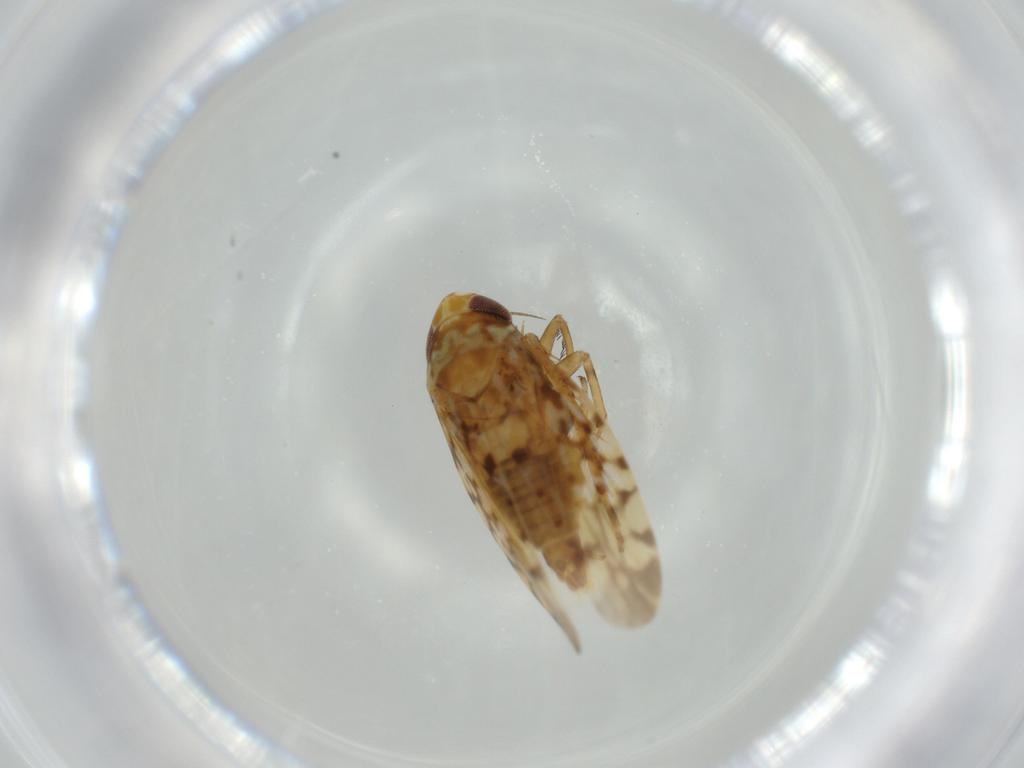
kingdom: Animalia
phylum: Arthropoda
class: Insecta
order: Hemiptera
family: Cicadellidae
